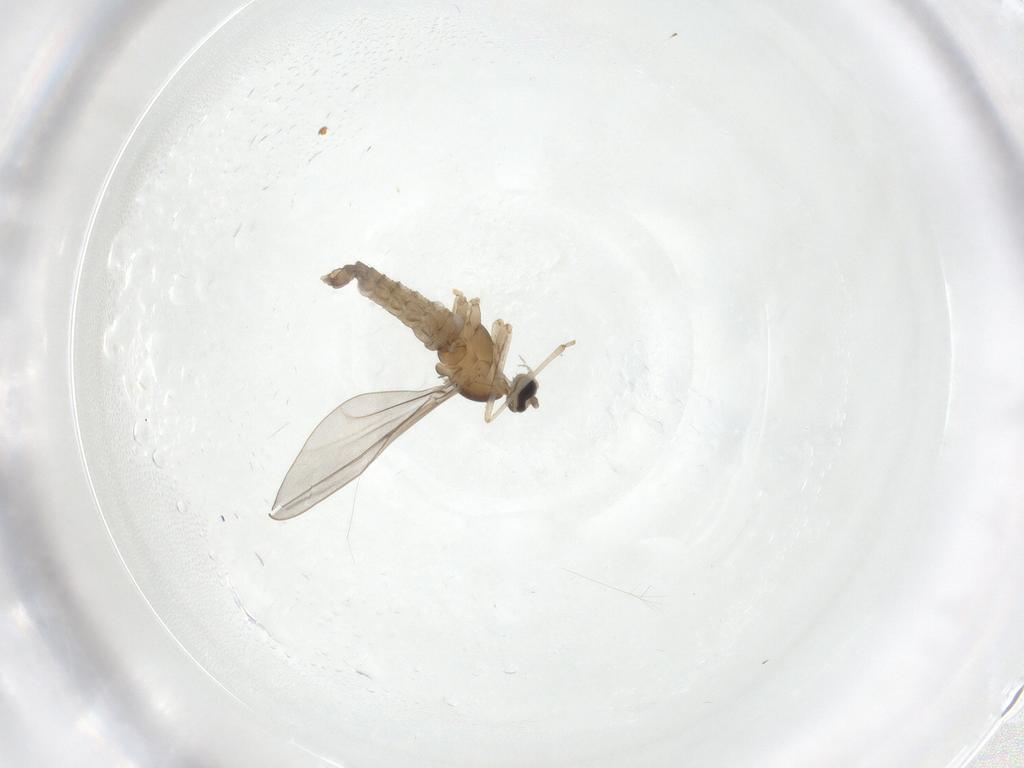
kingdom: Animalia
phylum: Arthropoda
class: Insecta
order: Diptera
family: Cecidomyiidae
